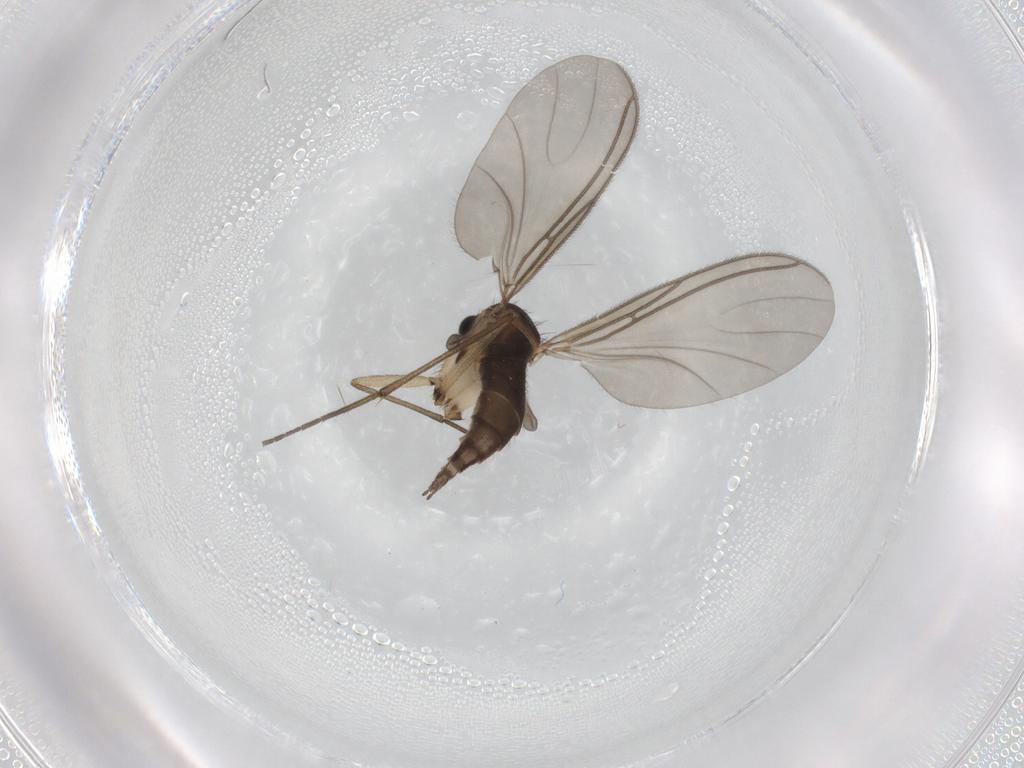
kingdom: Animalia
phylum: Arthropoda
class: Insecta
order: Diptera
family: Sciaridae
